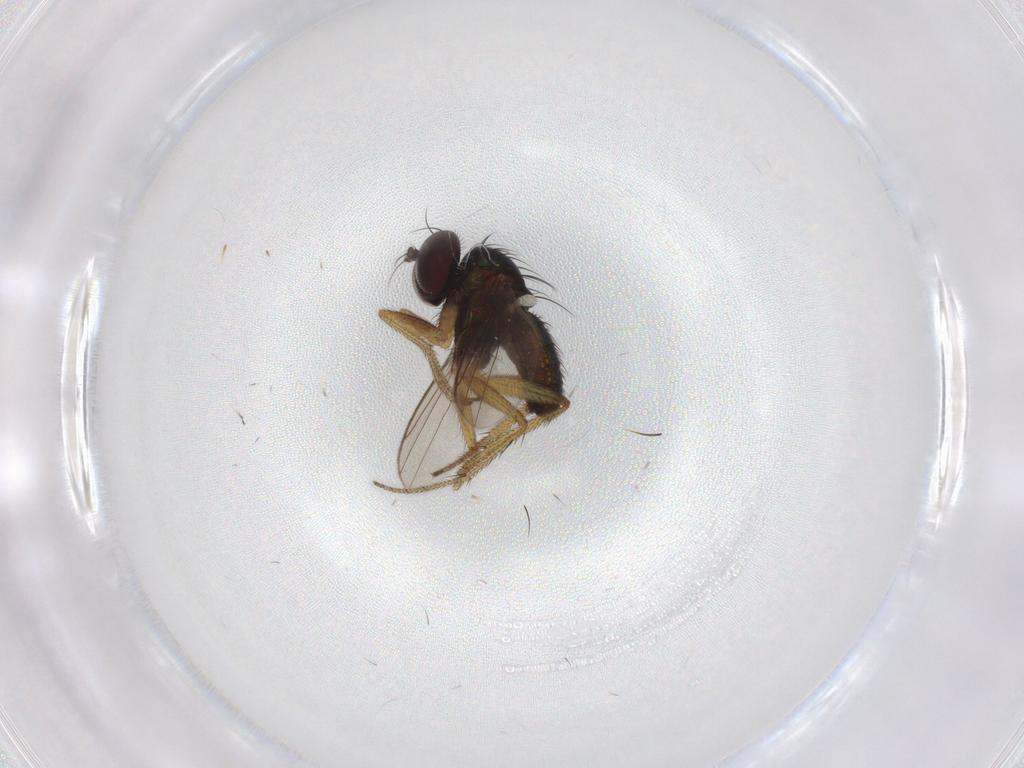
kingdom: Animalia
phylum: Arthropoda
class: Insecta
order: Diptera
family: Dolichopodidae
